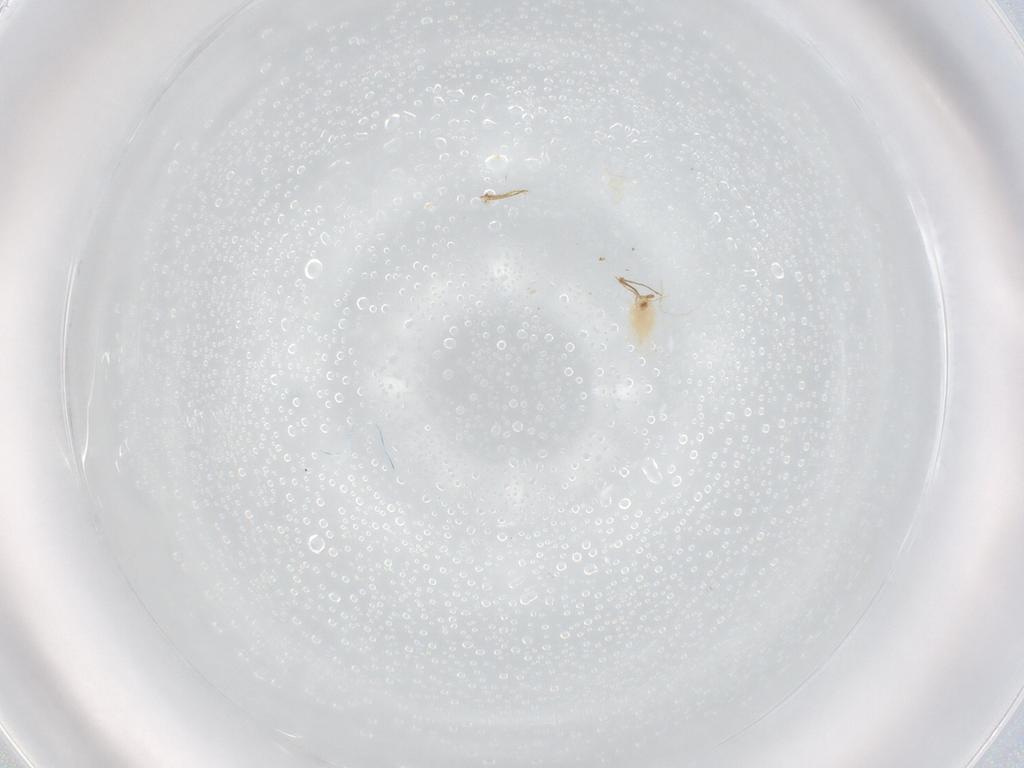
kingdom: Animalia
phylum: Arthropoda
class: Arachnida
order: Mesostigmata
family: Phytoseiidae
